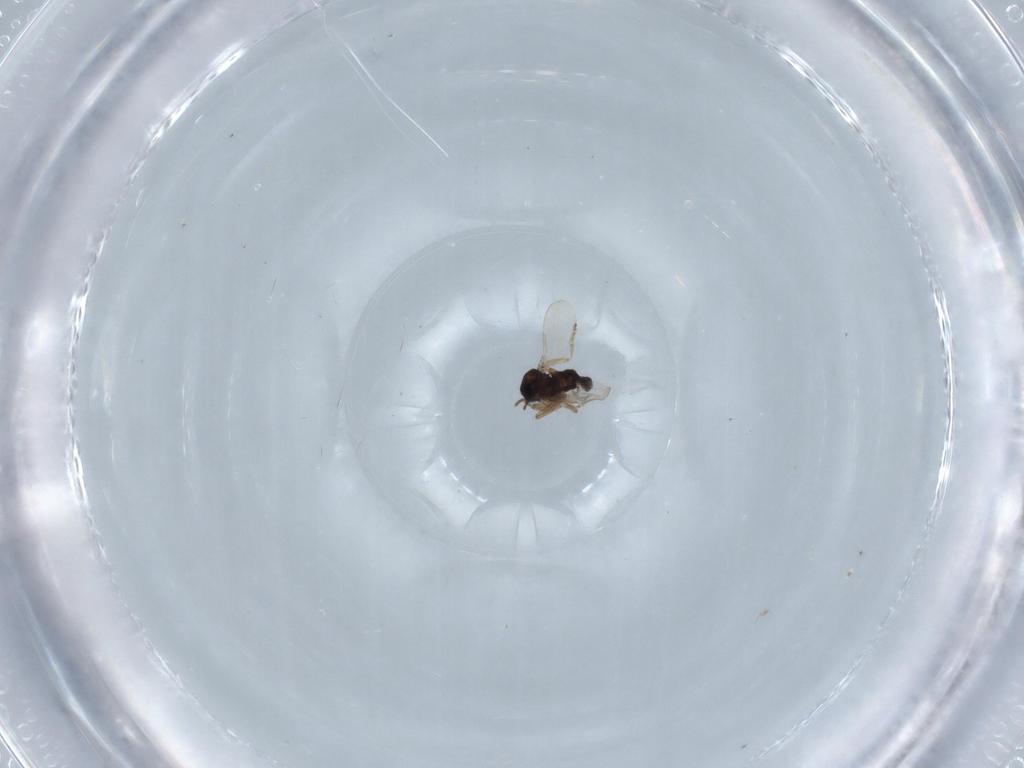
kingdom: Animalia
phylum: Arthropoda
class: Insecta
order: Diptera
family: Ceratopogonidae
